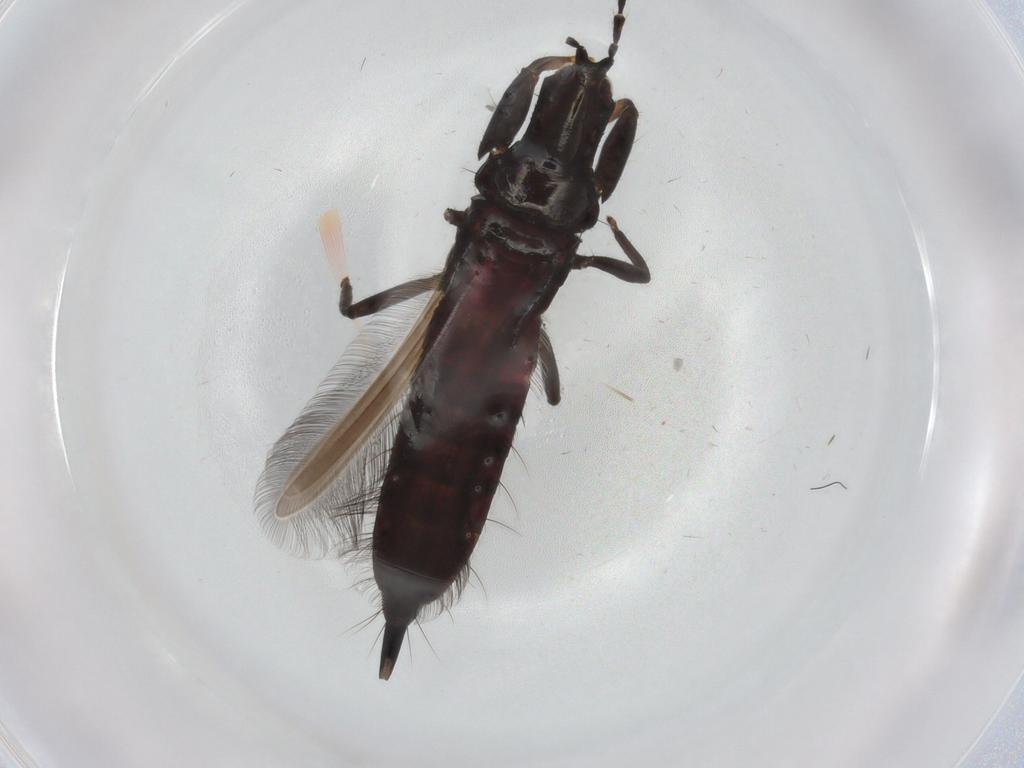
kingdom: Animalia
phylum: Arthropoda
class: Insecta
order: Thysanoptera
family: Phlaeothripidae
